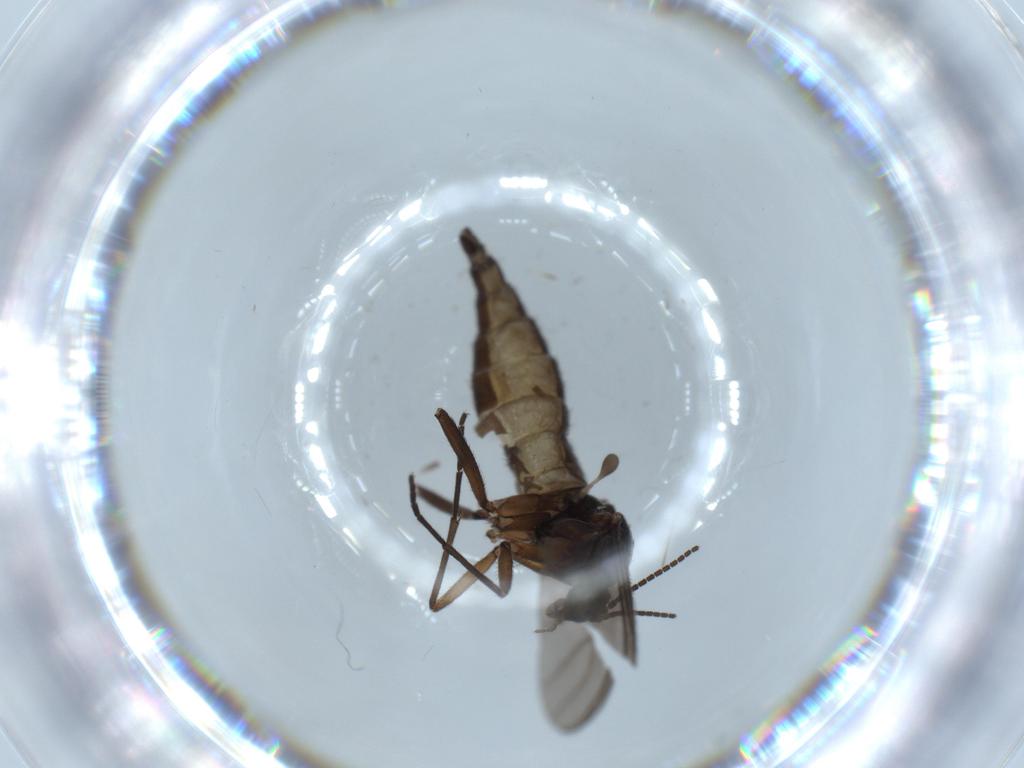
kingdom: Animalia
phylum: Arthropoda
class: Insecta
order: Diptera
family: Sciaridae
